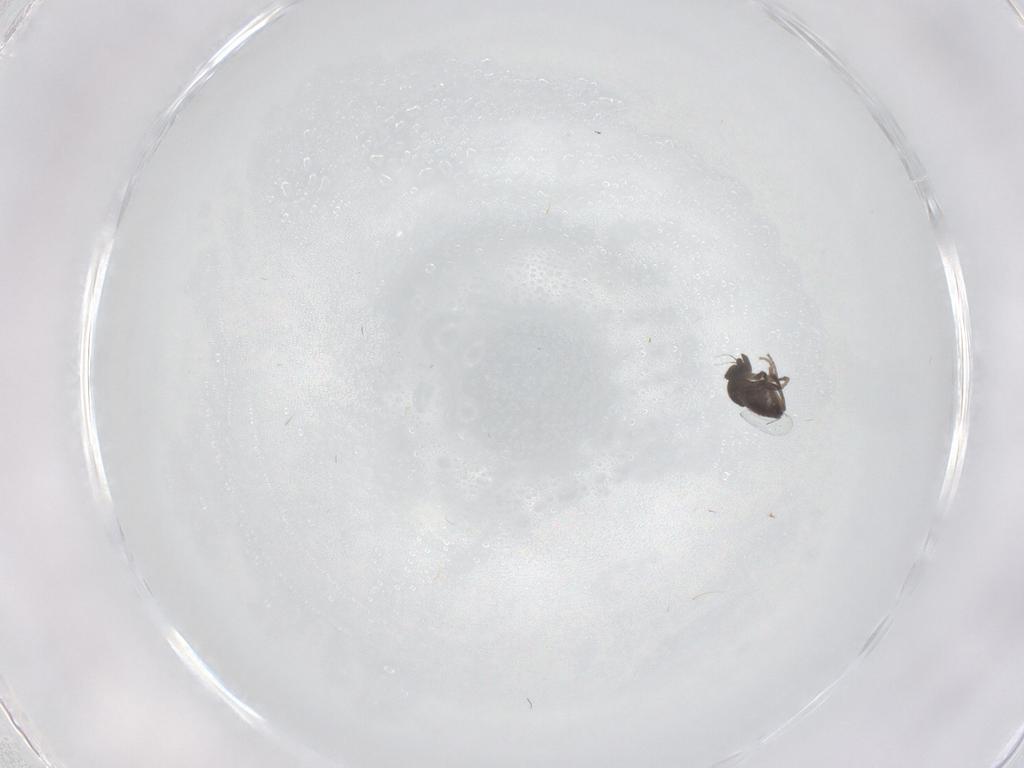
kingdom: Animalia
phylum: Arthropoda
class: Insecta
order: Diptera
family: Phoridae
